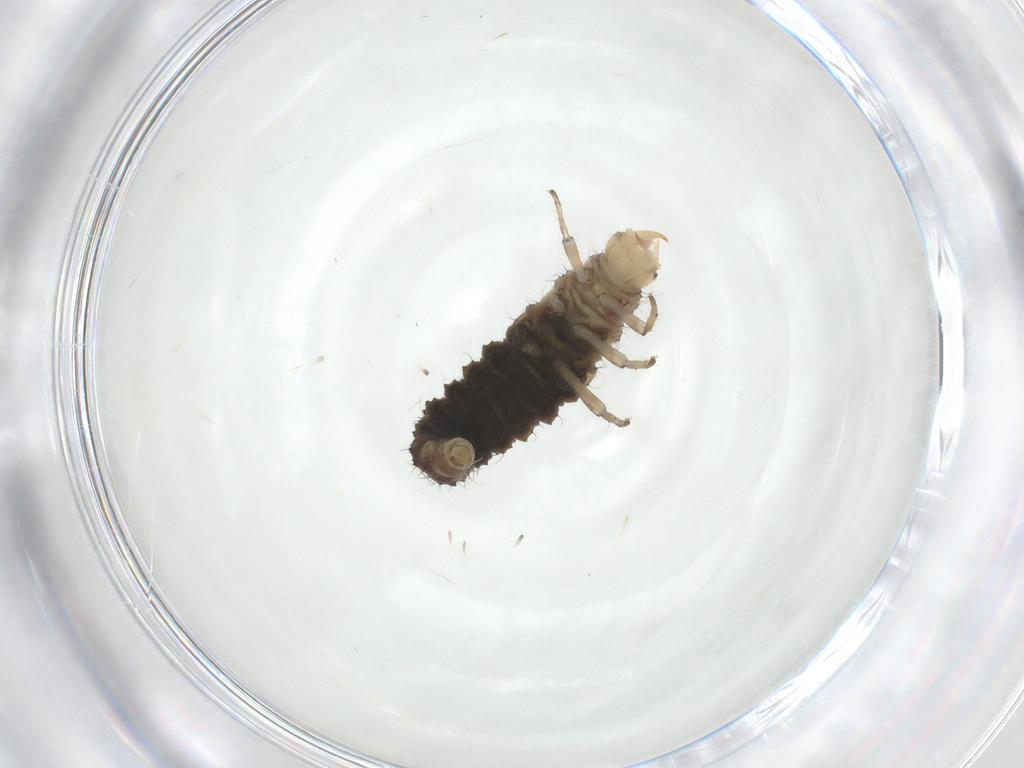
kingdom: Animalia
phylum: Arthropoda
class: Insecta
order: Neuroptera
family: Hemerobiidae
